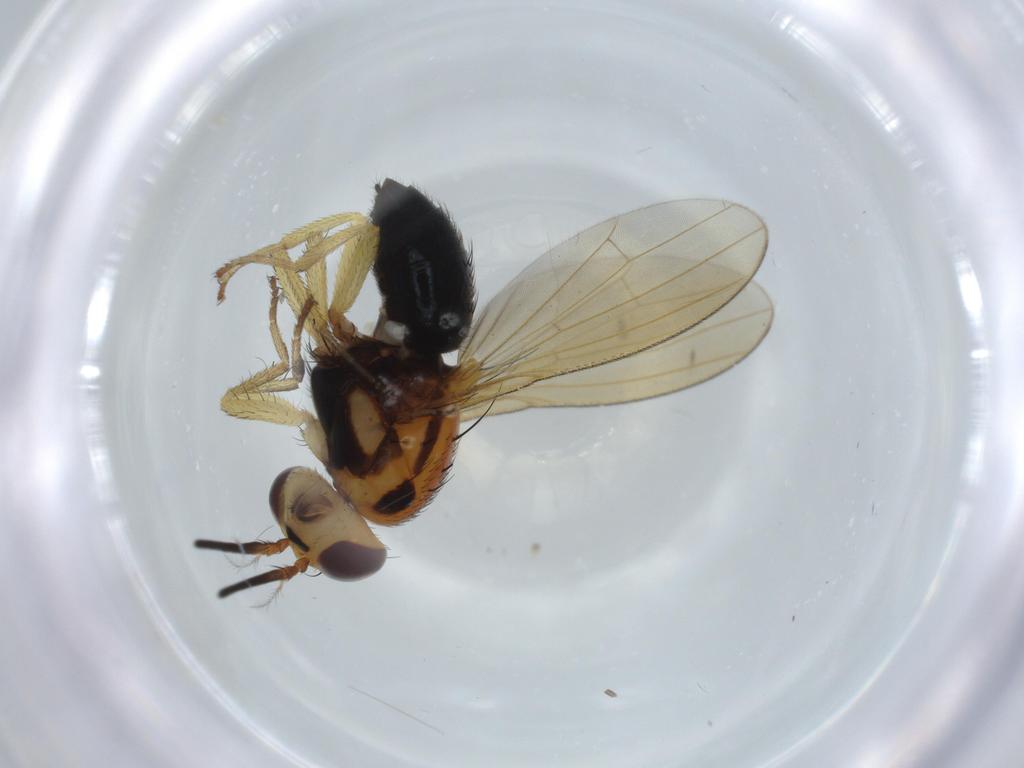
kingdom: Animalia
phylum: Arthropoda
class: Insecta
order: Diptera
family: Lauxaniidae
